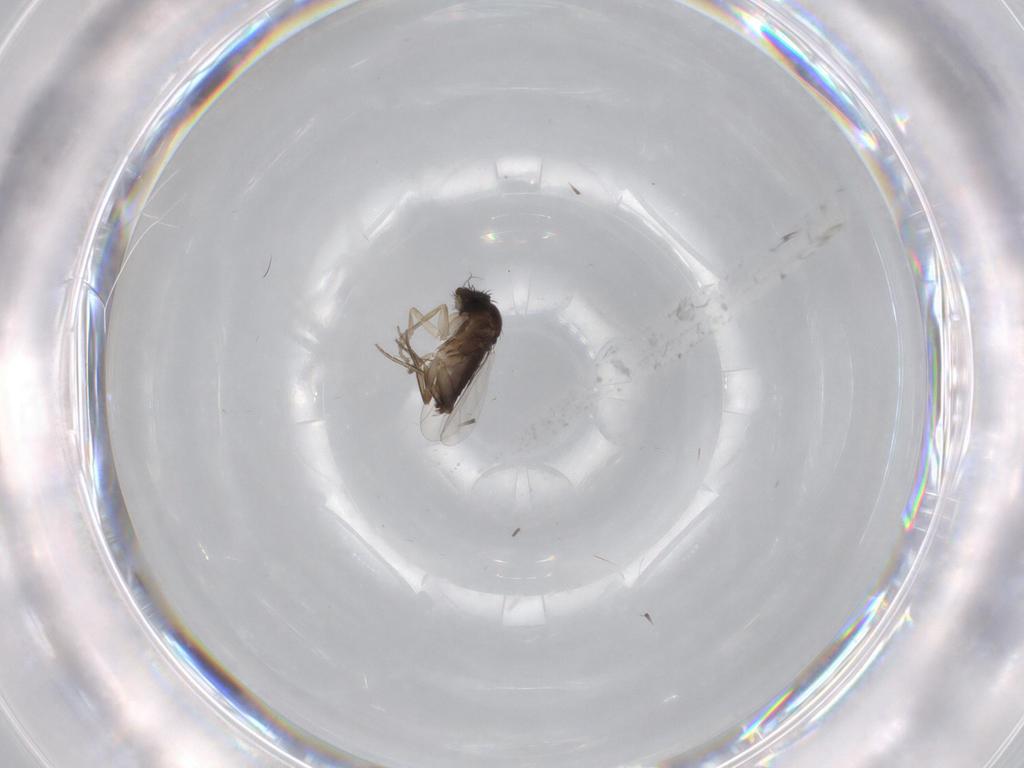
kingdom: Animalia
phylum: Arthropoda
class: Insecta
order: Diptera
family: Phoridae
